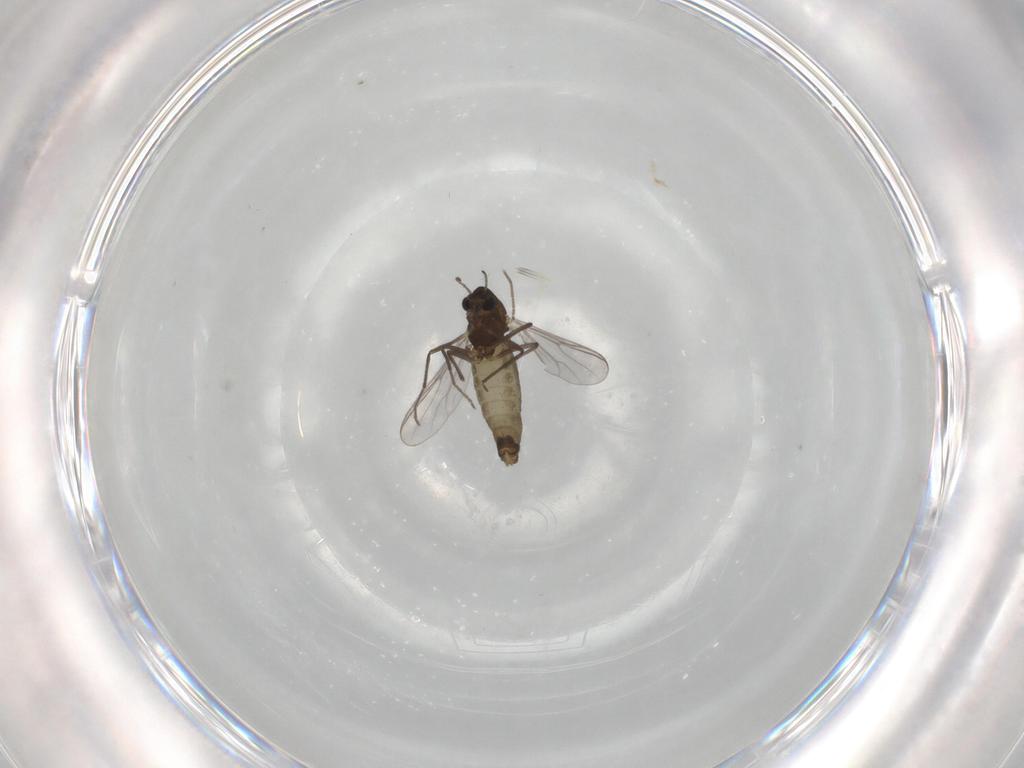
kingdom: Animalia
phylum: Arthropoda
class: Insecta
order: Diptera
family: Chironomidae
